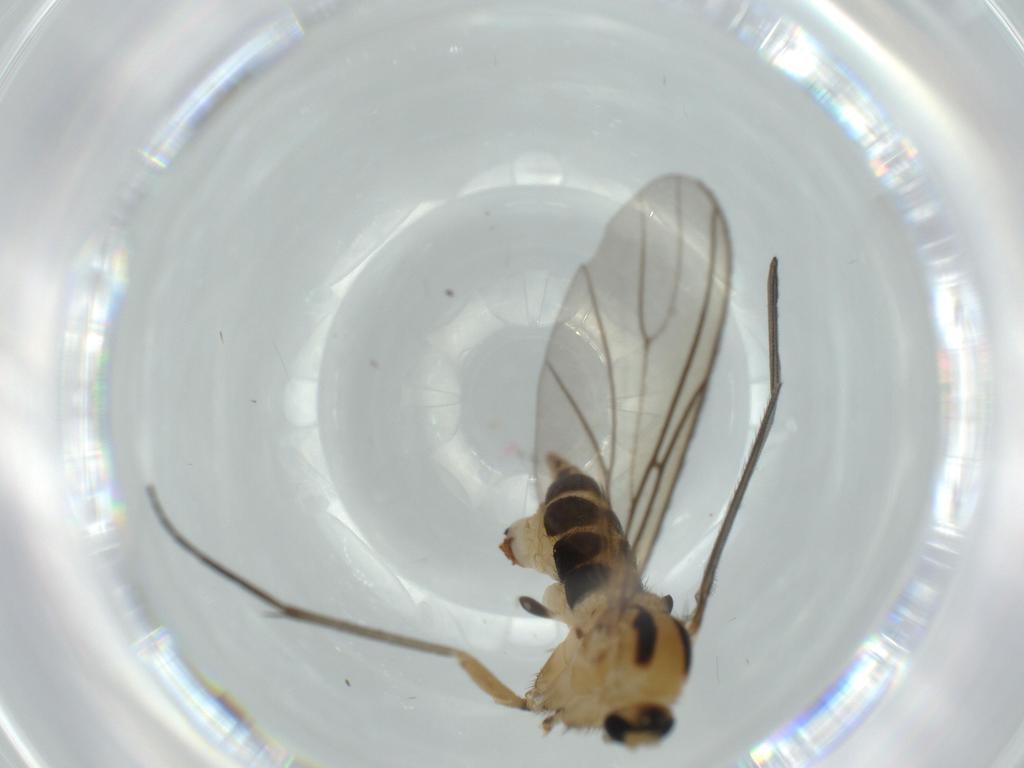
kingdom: Animalia
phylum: Arthropoda
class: Insecta
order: Diptera
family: Sciaridae
